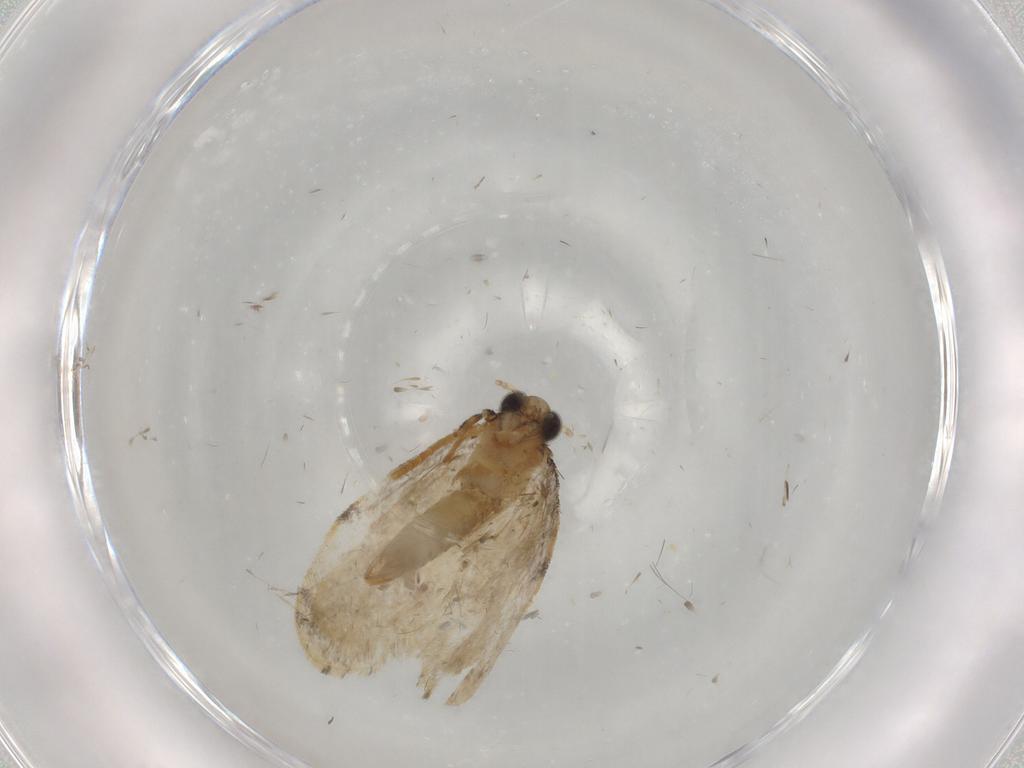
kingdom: Animalia
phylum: Arthropoda
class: Insecta
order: Lepidoptera
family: Psychidae
